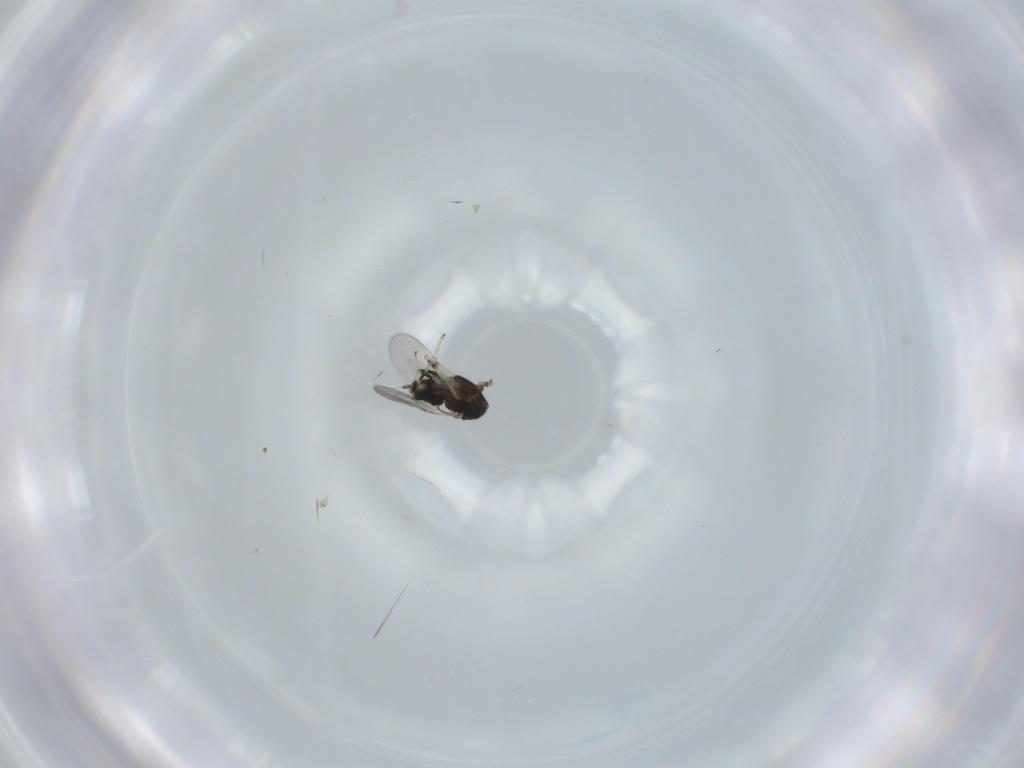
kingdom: Animalia
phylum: Arthropoda
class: Insecta
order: Hymenoptera
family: Encyrtidae
